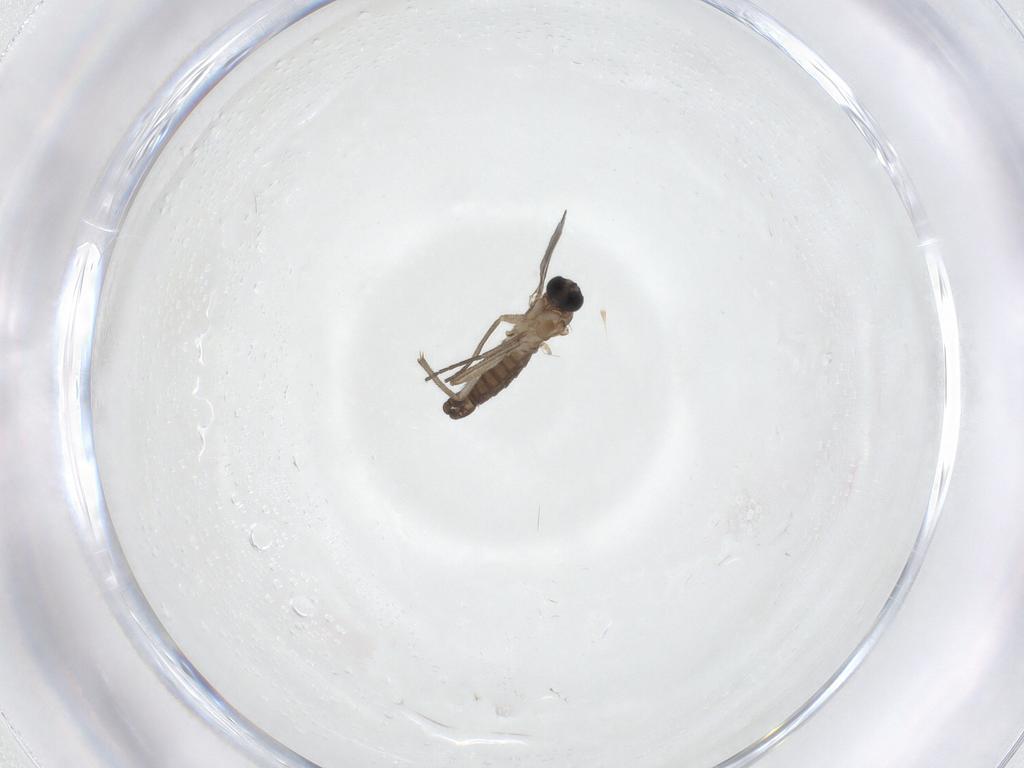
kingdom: Animalia
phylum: Arthropoda
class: Insecta
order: Diptera
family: Sciaridae
